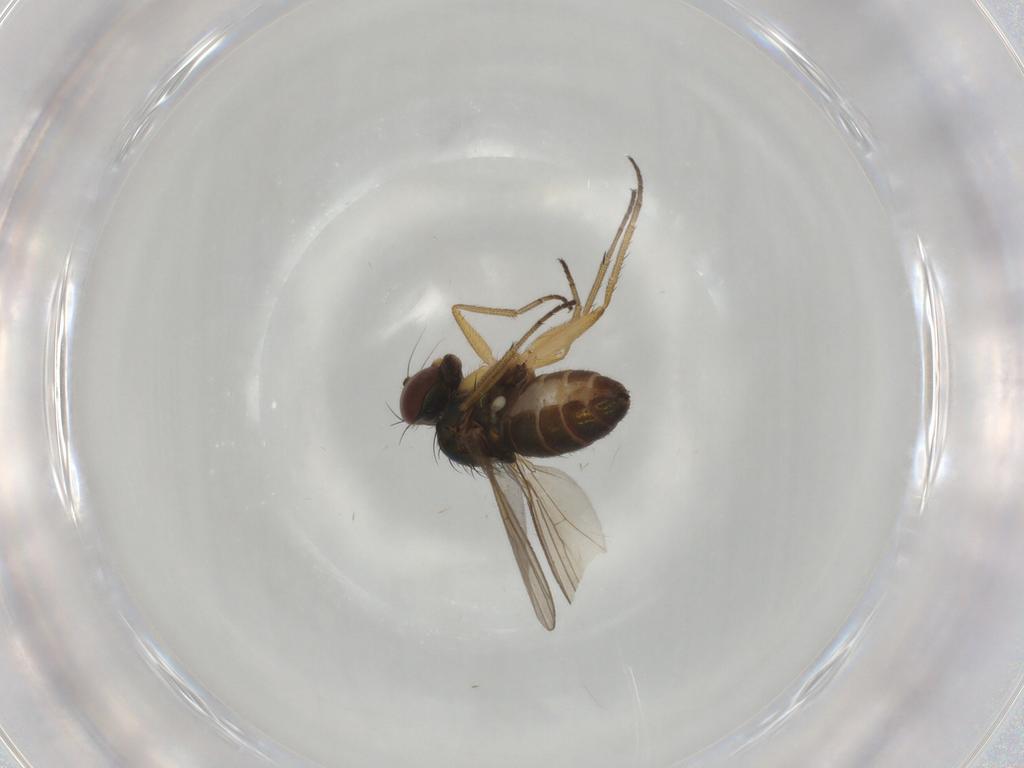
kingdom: Animalia
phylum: Arthropoda
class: Insecta
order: Diptera
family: Dolichopodidae
